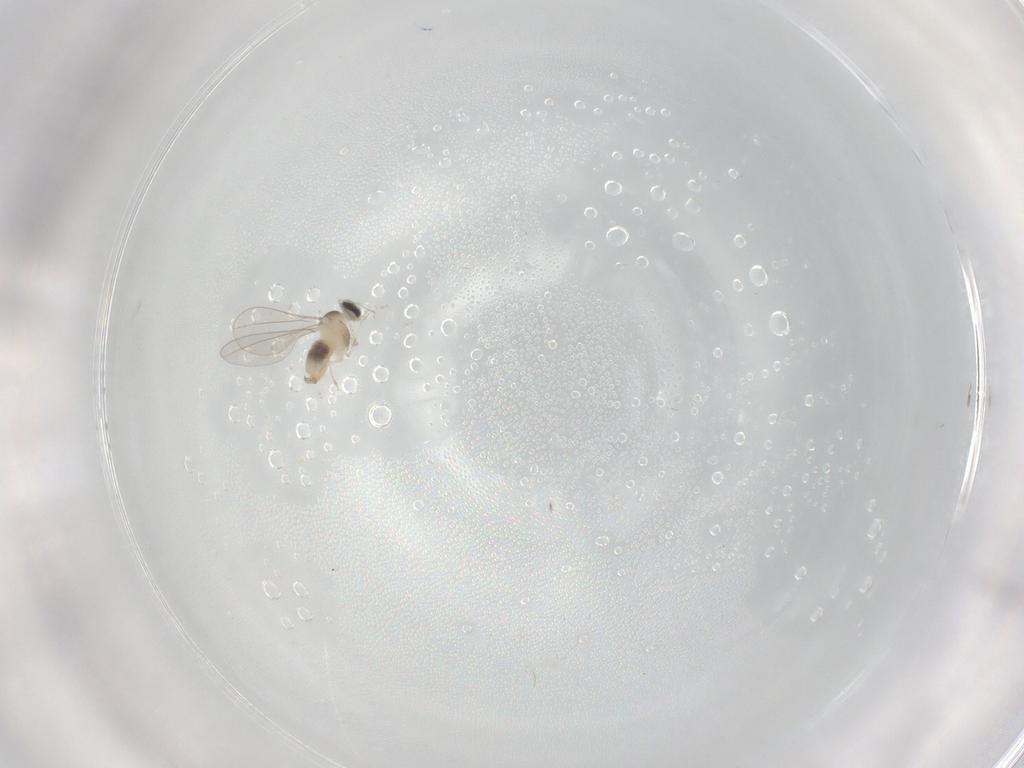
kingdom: Animalia
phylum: Arthropoda
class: Insecta
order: Diptera
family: Cecidomyiidae
